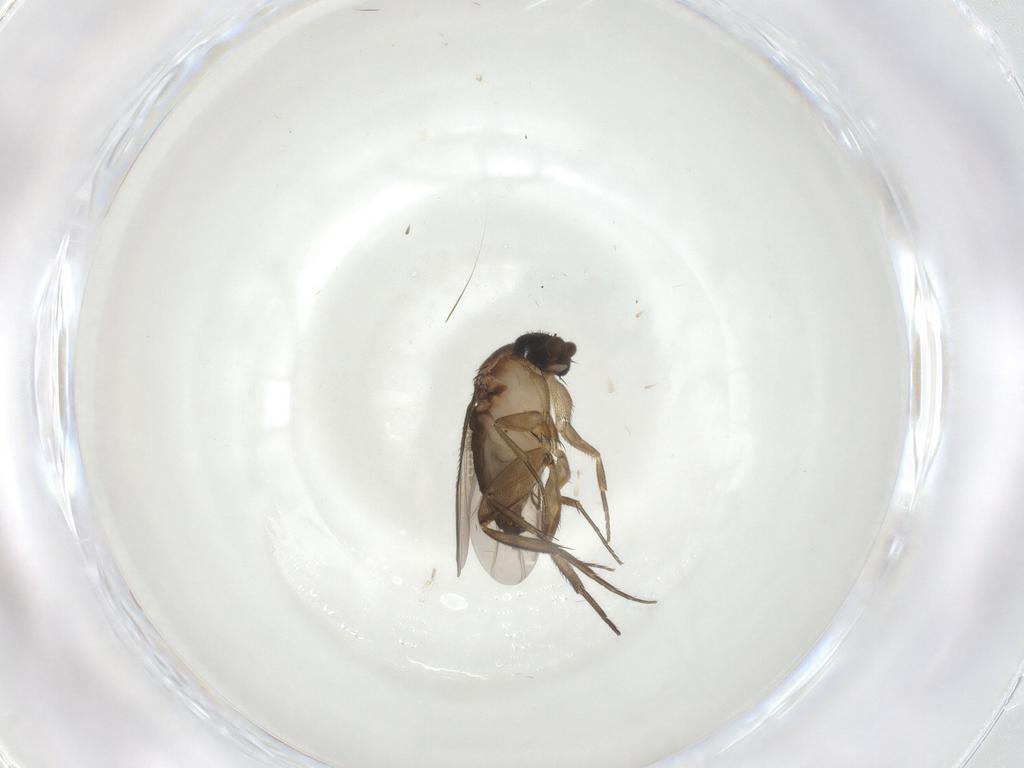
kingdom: Animalia
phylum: Arthropoda
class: Insecta
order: Diptera
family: Phoridae
